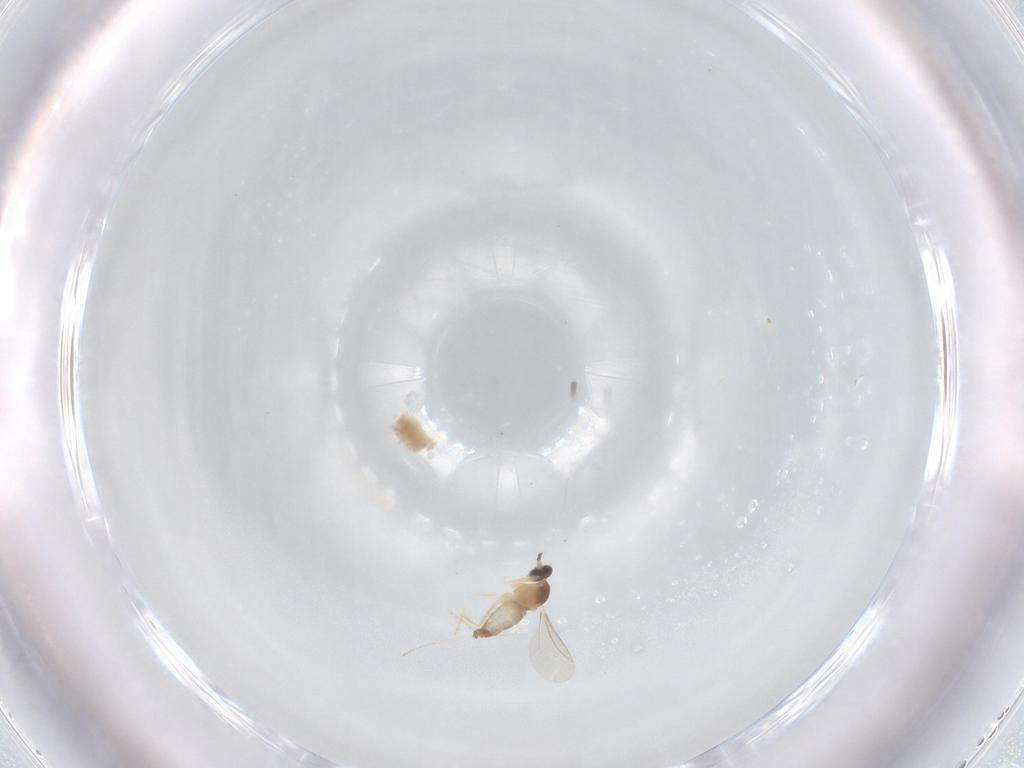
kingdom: Animalia
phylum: Arthropoda
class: Insecta
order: Diptera
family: Cecidomyiidae
